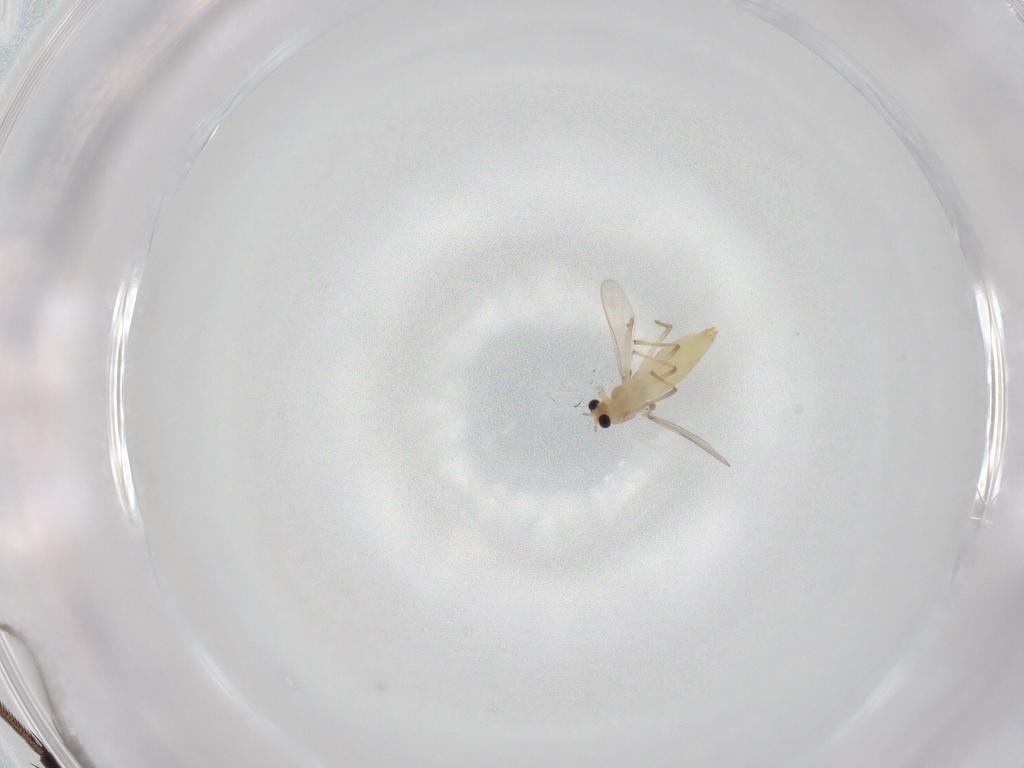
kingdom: Animalia
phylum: Arthropoda
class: Insecta
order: Diptera
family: Chironomidae
